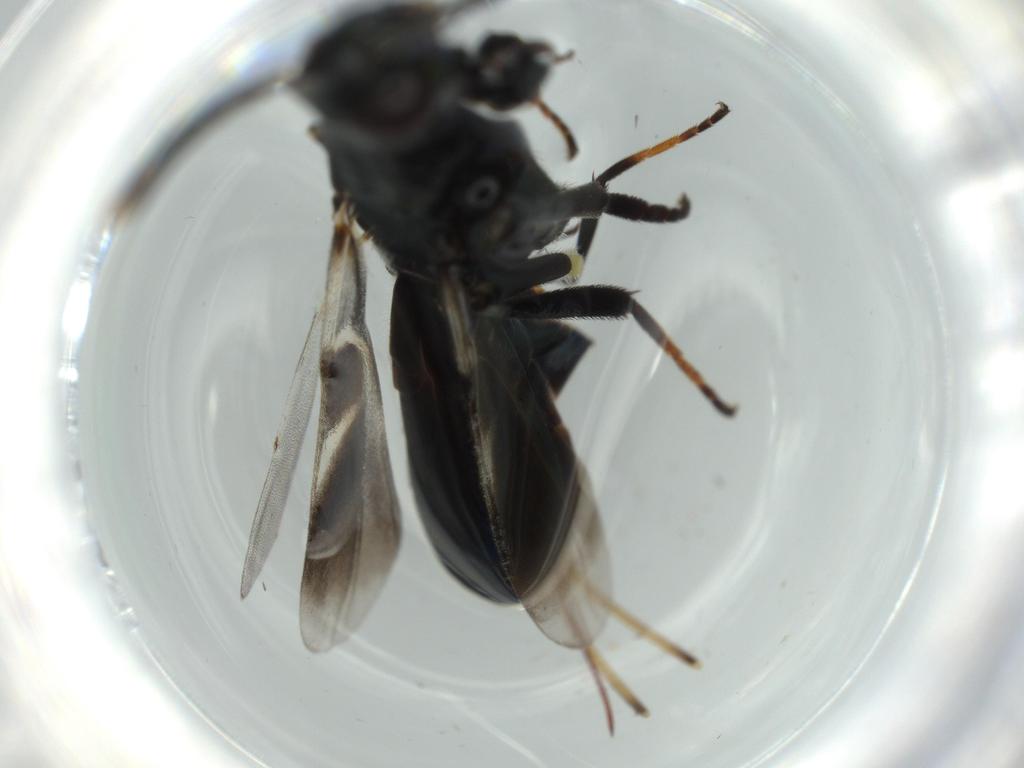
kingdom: Animalia
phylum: Arthropoda
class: Insecta
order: Hymenoptera
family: Eupelmidae
